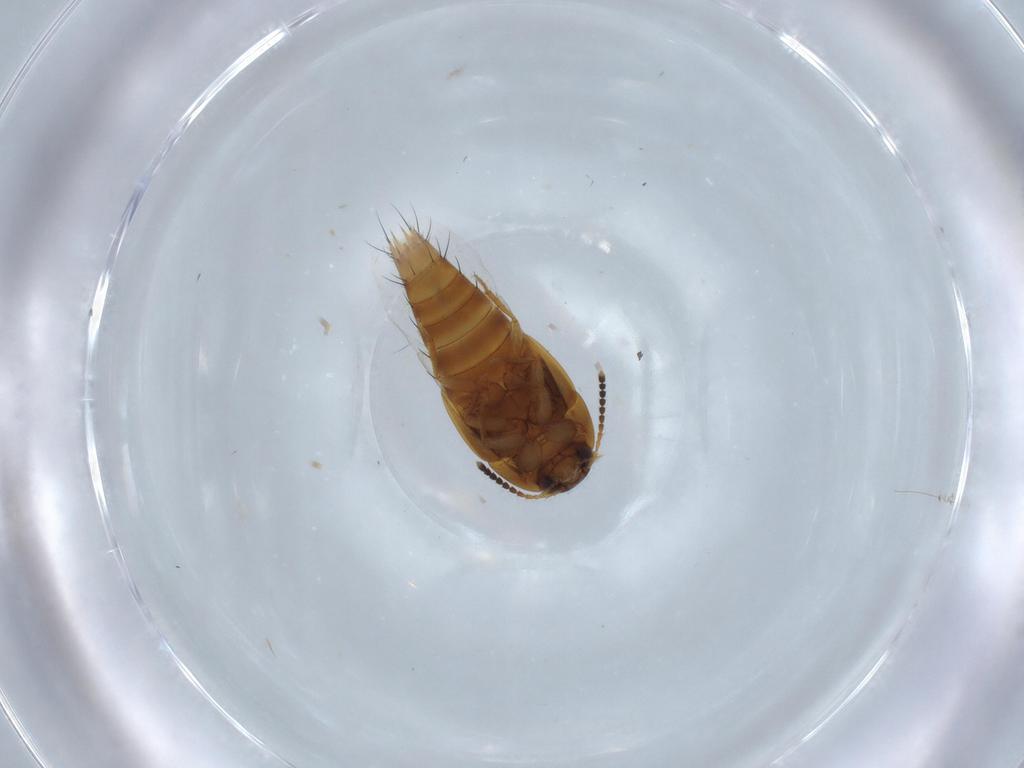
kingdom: Animalia
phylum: Arthropoda
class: Insecta
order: Coleoptera
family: Staphylinidae
